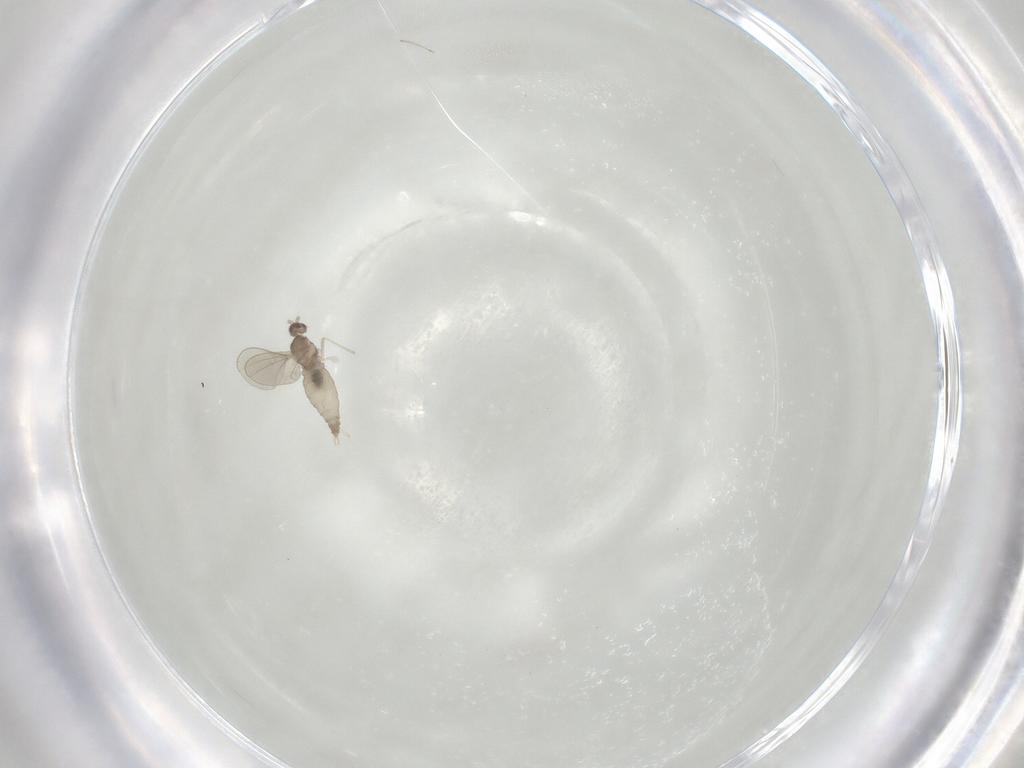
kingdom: Animalia
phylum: Arthropoda
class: Insecta
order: Diptera
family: Cecidomyiidae
